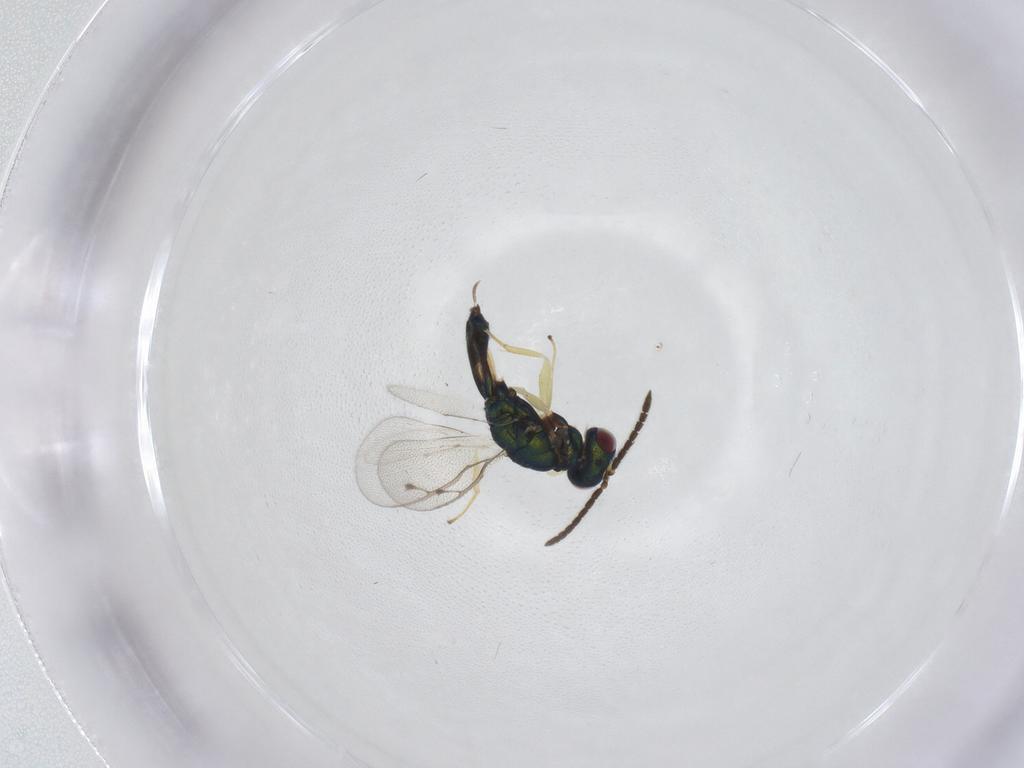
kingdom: Animalia
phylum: Arthropoda
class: Insecta
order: Hymenoptera
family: Pteromalidae
